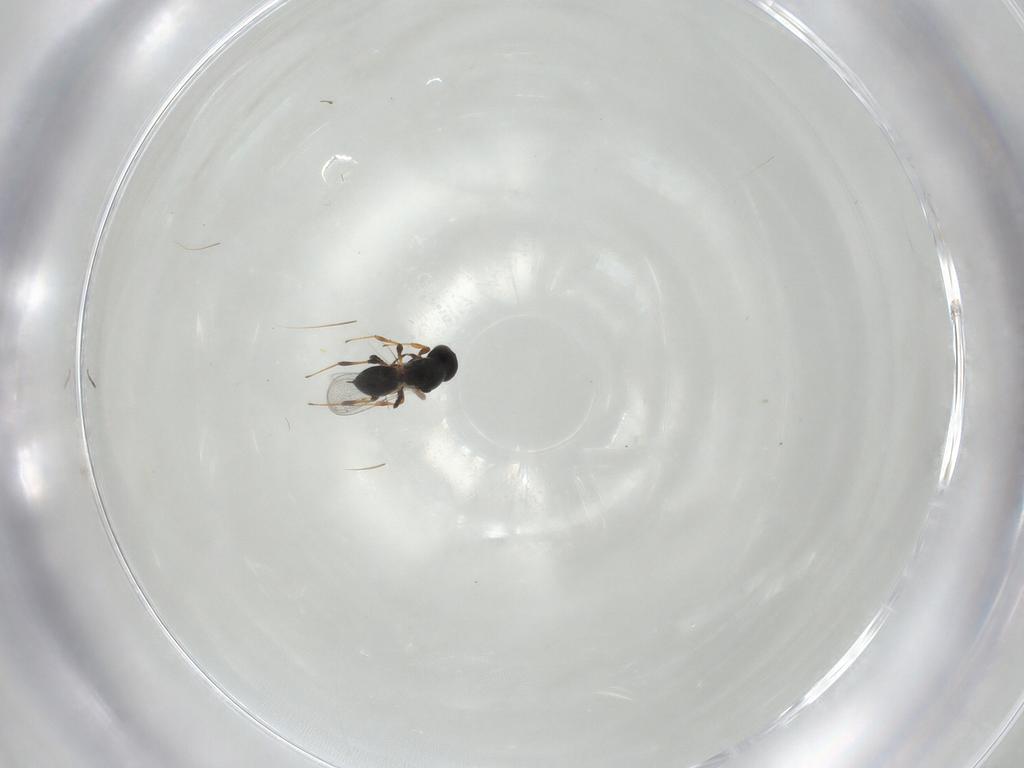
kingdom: Animalia
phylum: Arthropoda
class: Insecta
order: Hymenoptera
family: Platygastridae
